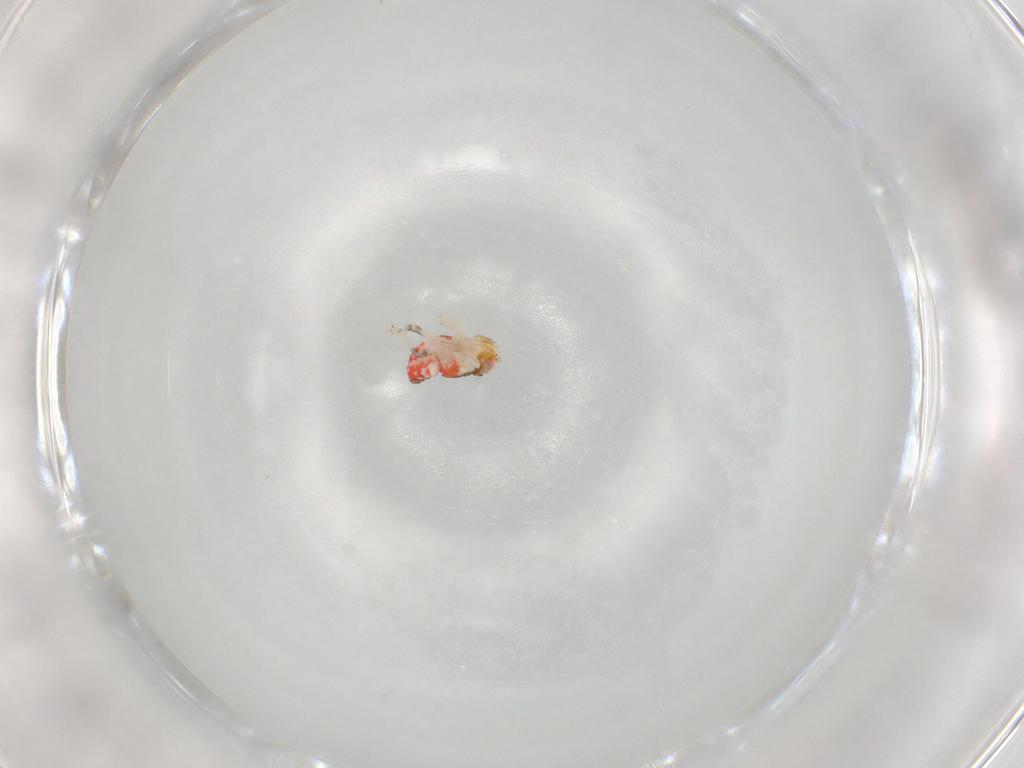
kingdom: Animalia
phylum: Arthropoda
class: Insecta
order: Hemiptera
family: Nogodinidae
